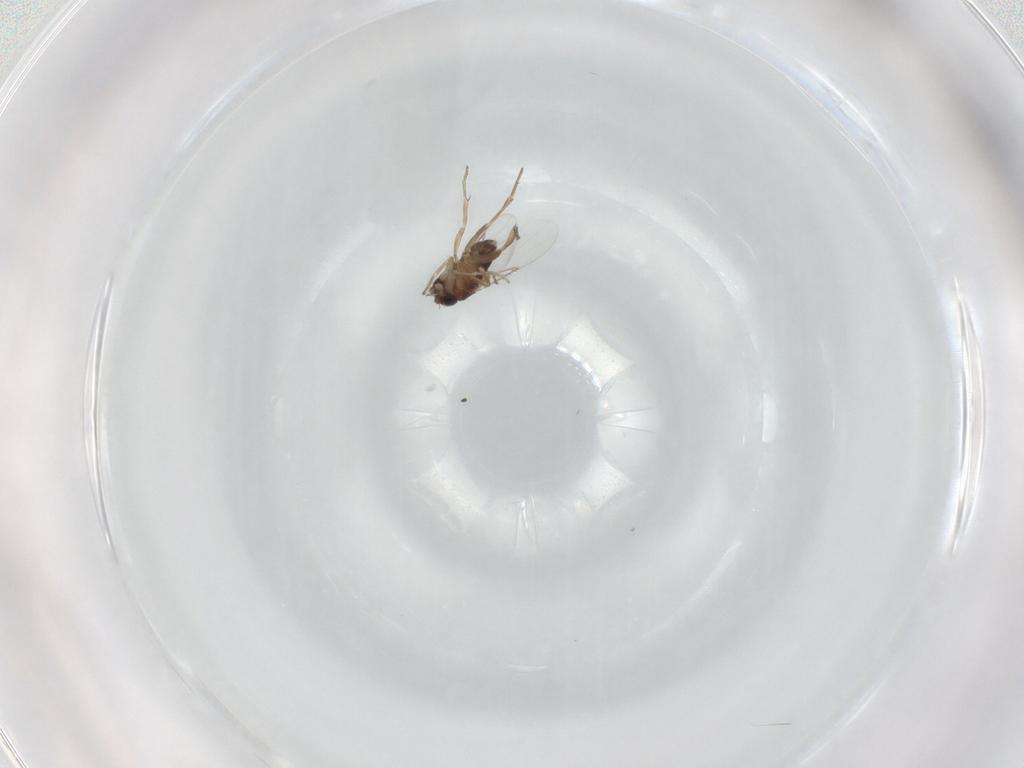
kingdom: Animalia
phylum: Arthropoda
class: Insecta
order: Diptera
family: Phoridae
